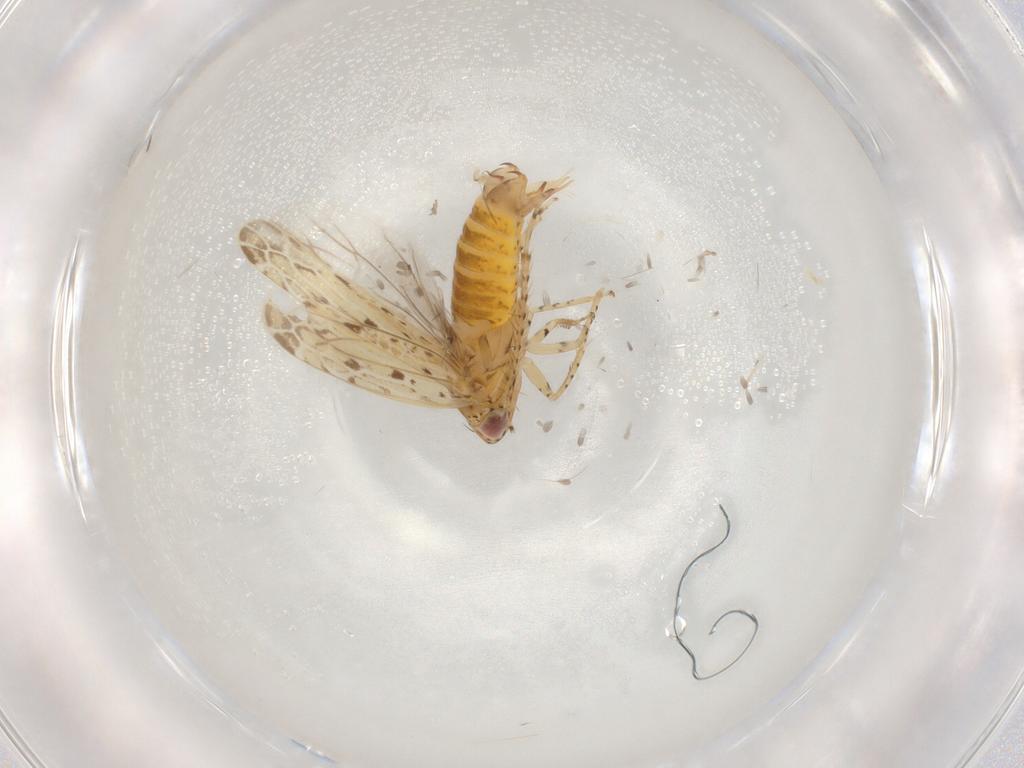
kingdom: Animalia
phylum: Arthropoda
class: Insecta
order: Hemiptera
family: Cicadellidae
